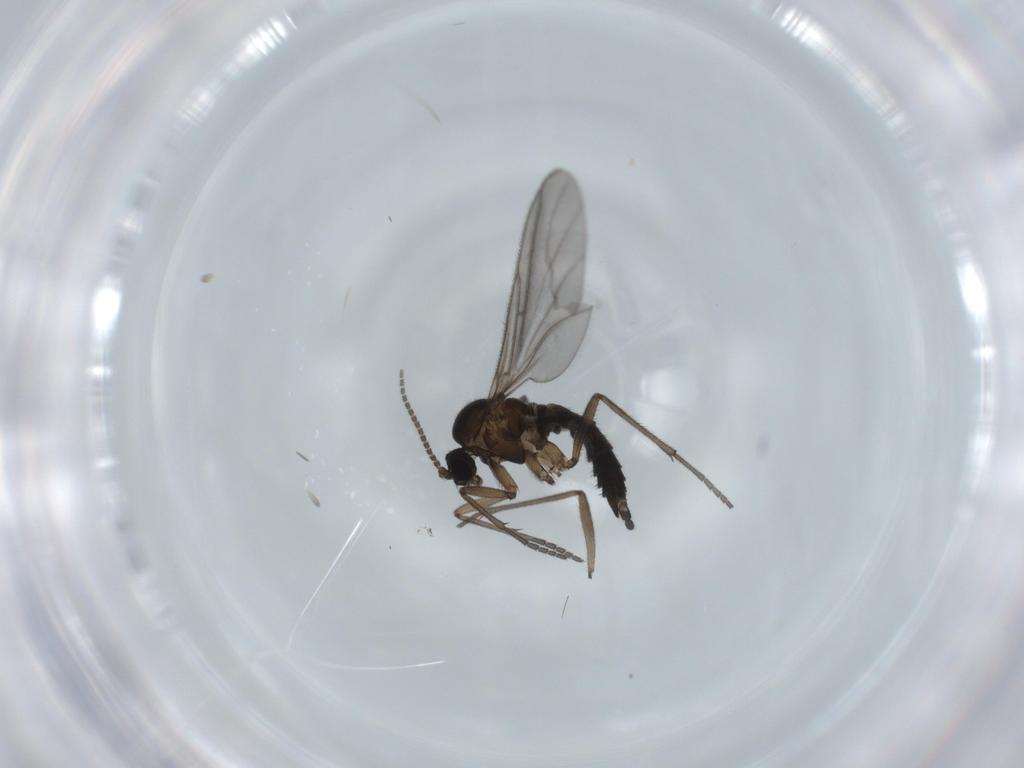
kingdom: Animalia
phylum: Arthropoda
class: Insecta
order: Diptera
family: Sciaridae
